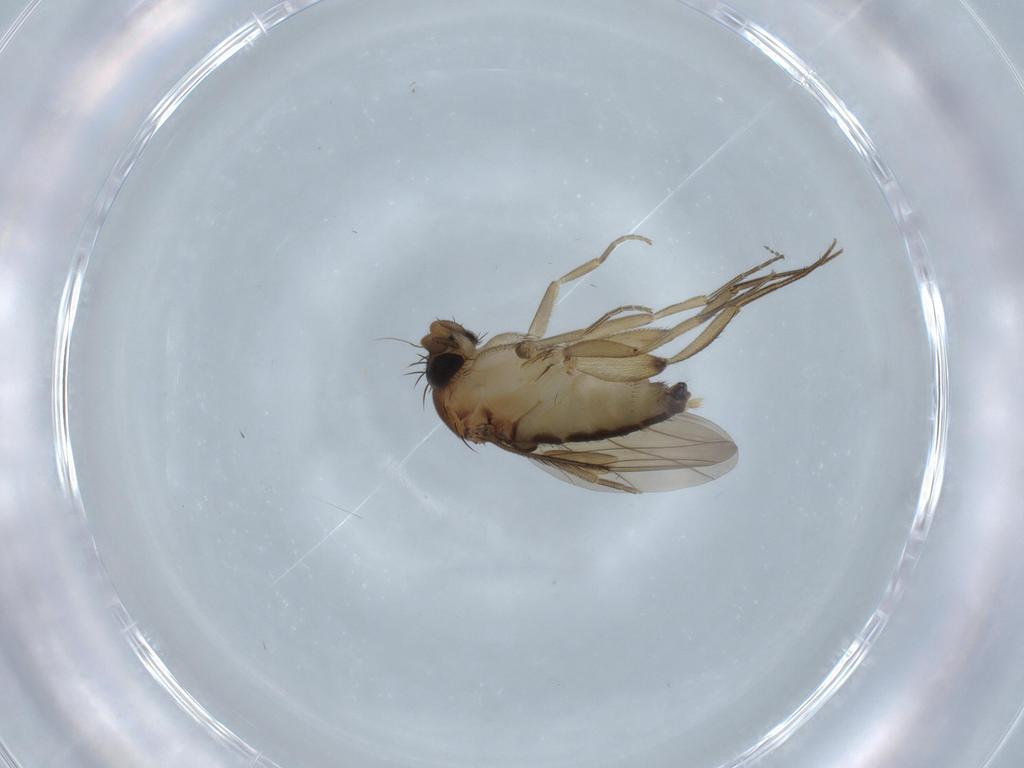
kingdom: Animalia
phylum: Arthropoda
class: Insecta
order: Diptera
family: Phoridae
